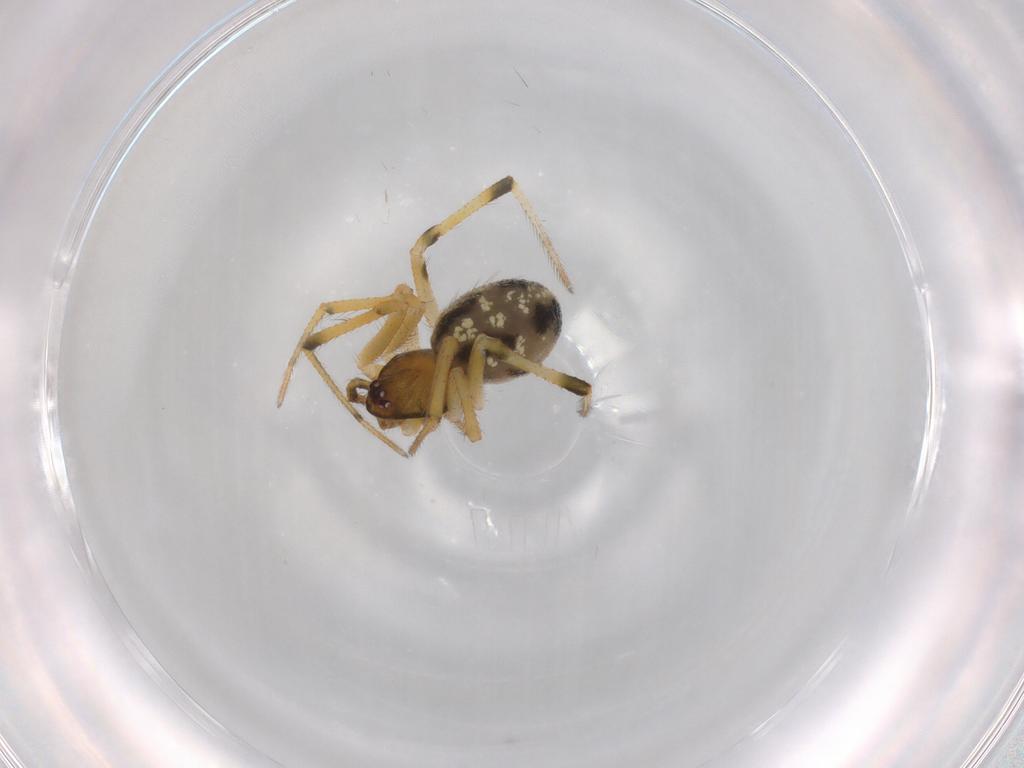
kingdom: Animalia
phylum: Arthropoda
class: Arachnida
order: Araneae
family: Theridiidae
